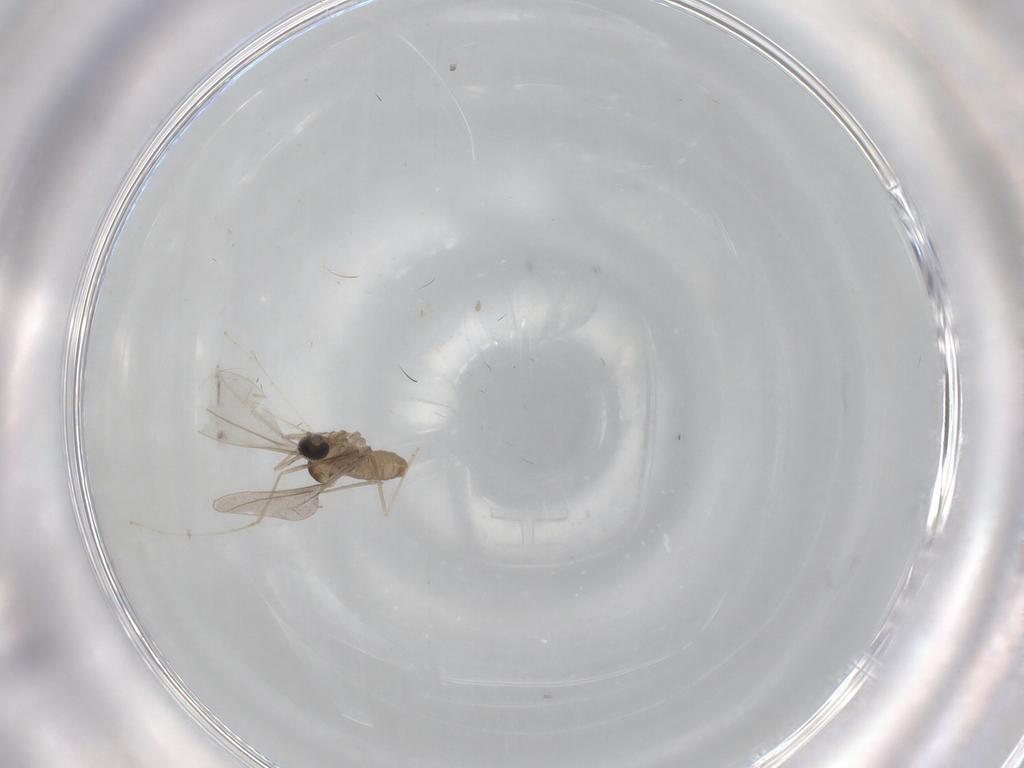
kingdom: Animalia
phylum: Arthropoda
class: Insecta
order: Diptera
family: Cecidomyiidae
